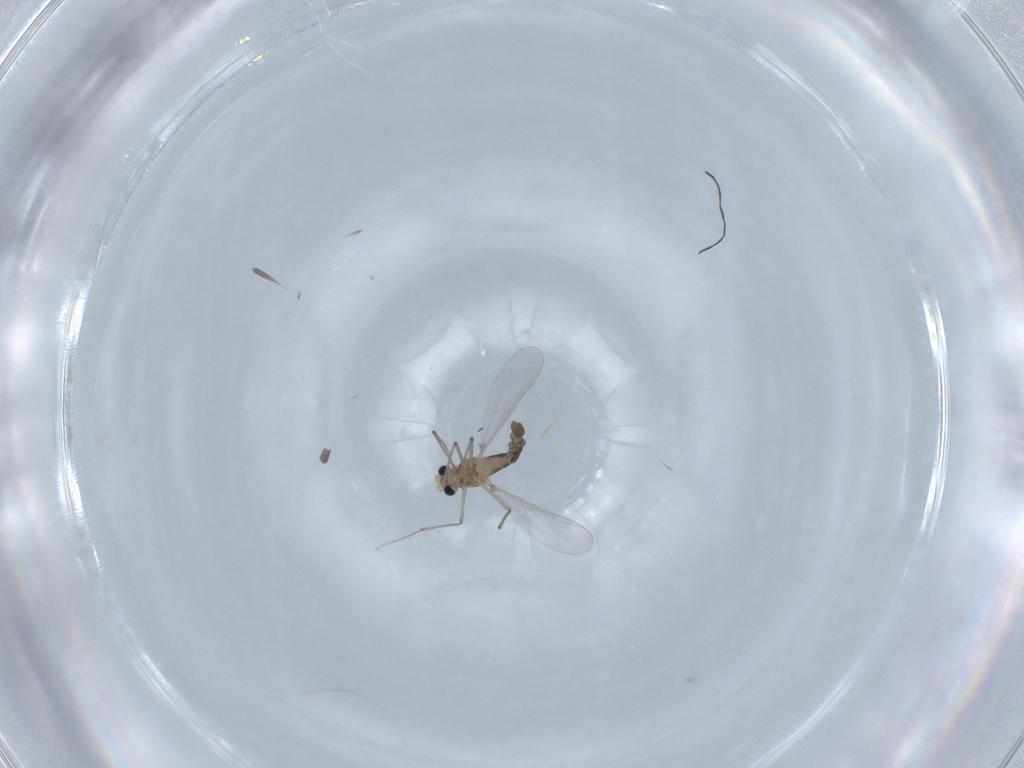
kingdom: Animalia
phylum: Arthropoda
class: Insecta
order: Diptera
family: Chironomidae
